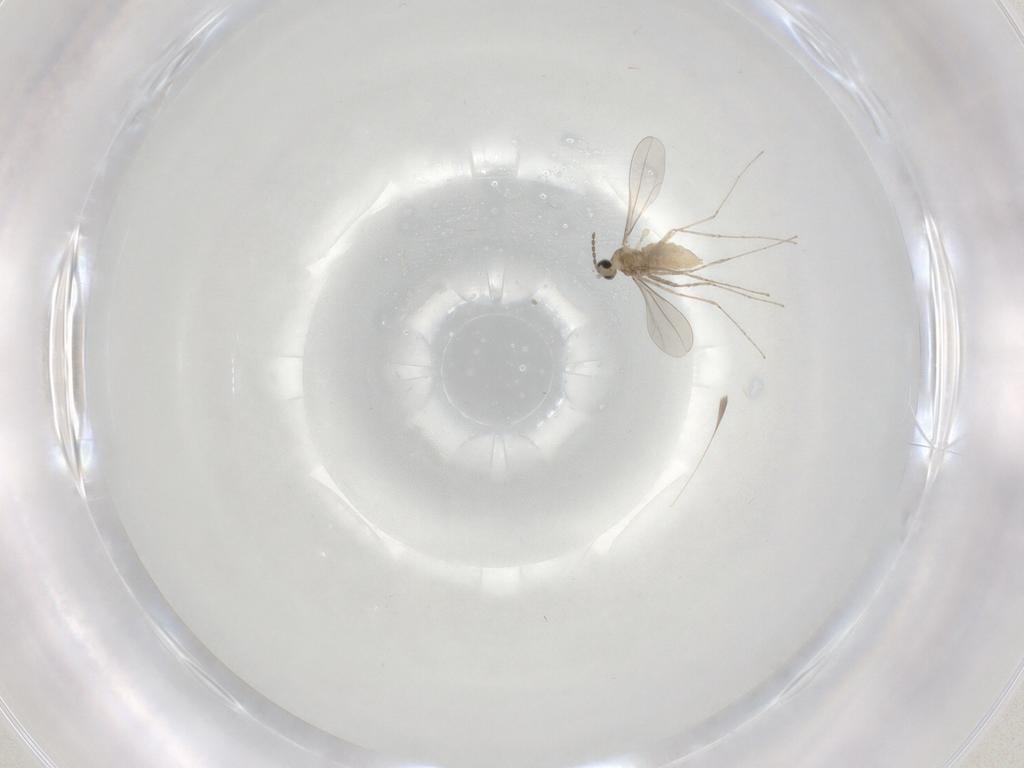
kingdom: Animalia
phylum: Arthropoda
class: Insecta
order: Diptera
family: Cecidomyiidae
